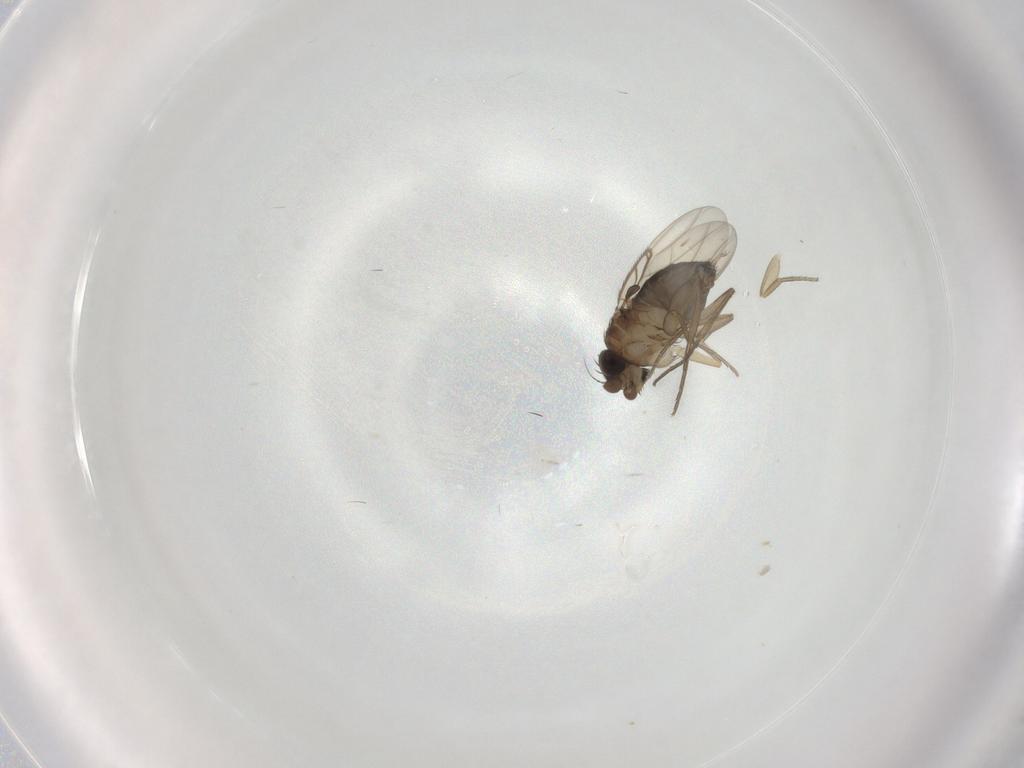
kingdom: Animalia
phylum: Arthropoda
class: Insecta
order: Diptera
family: Phoridae
